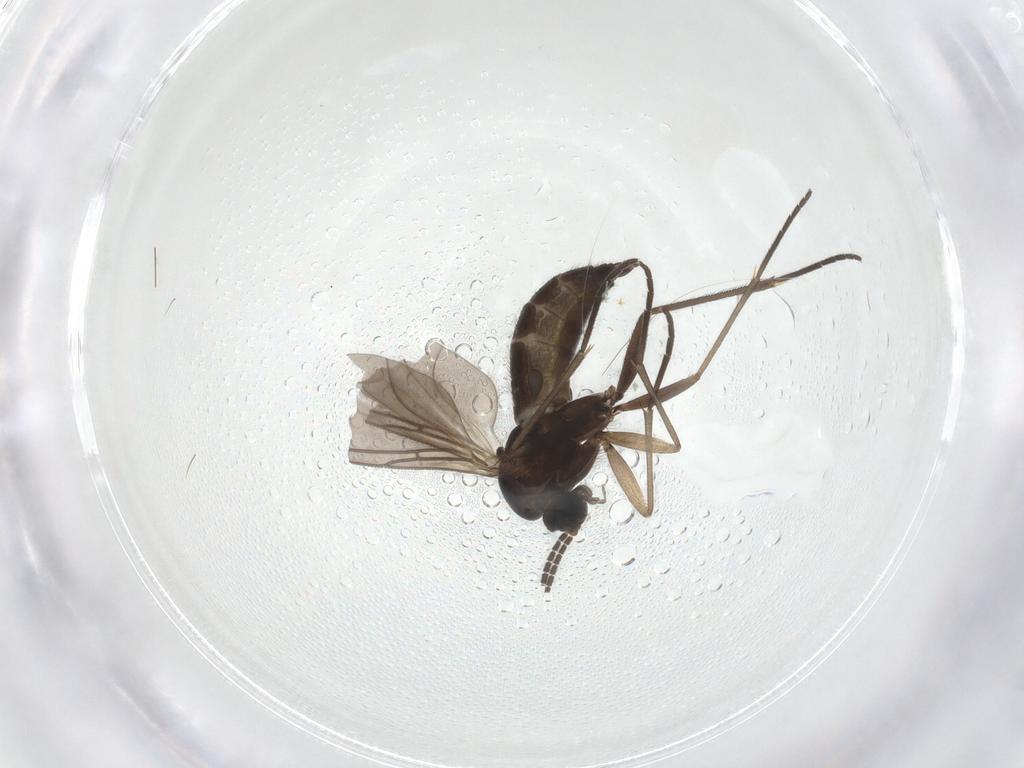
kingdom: Animalia
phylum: Arthropoda
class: Insecta
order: Diptera
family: Sciaridae
